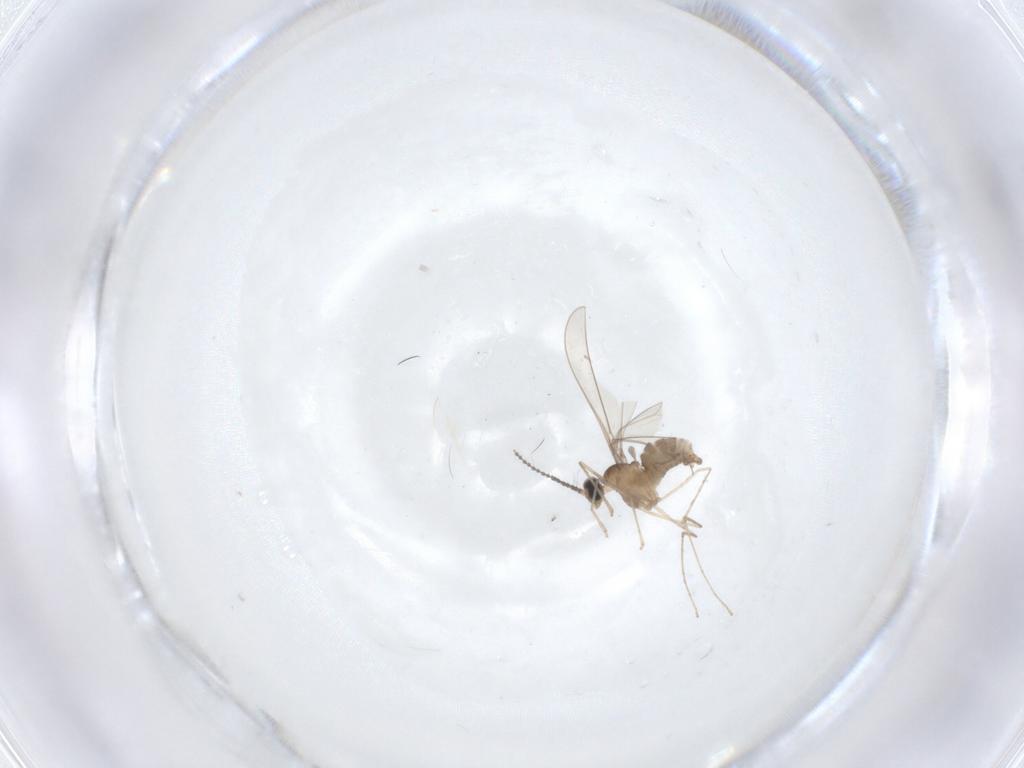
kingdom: Animalia
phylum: Arthropoda
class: Insecta
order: Diptera
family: Cecidomyiidae
